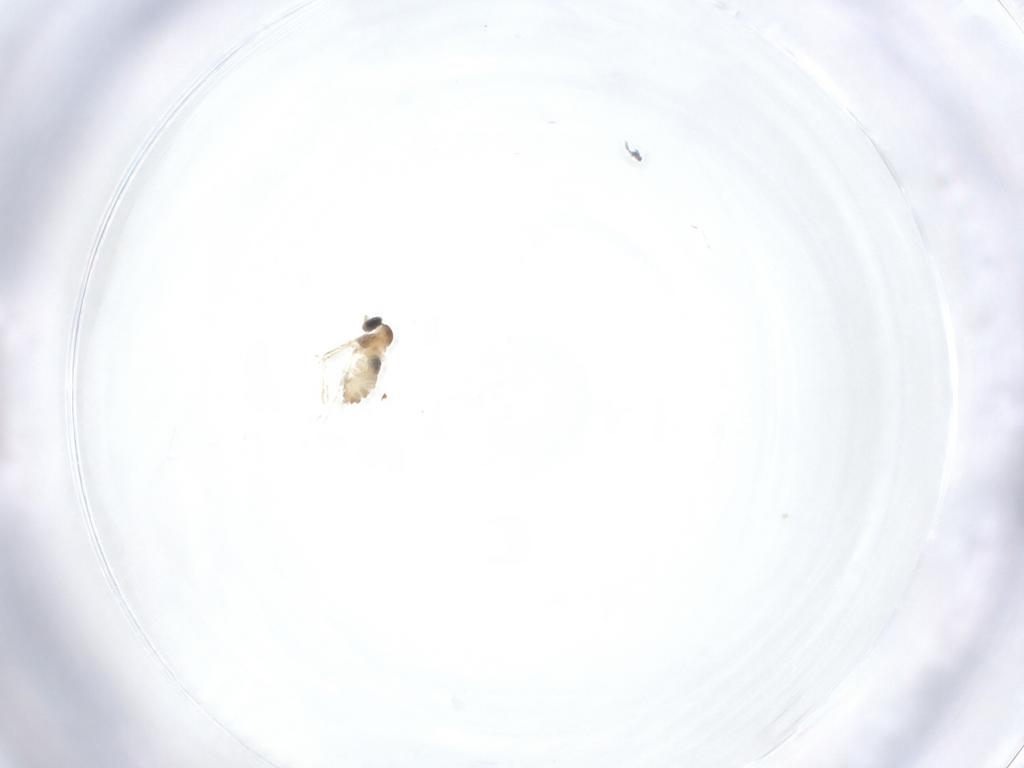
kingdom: Animalia
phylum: Arthropoda
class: Insecta
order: Diptera
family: Cecidomyiidae
